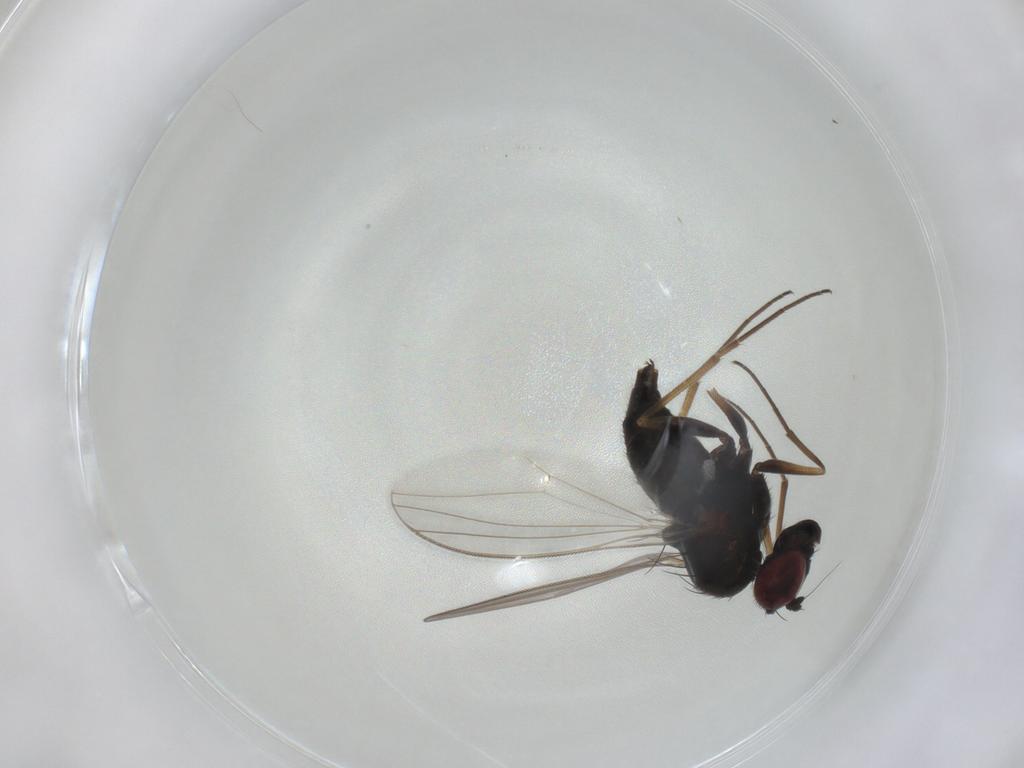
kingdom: Animalia
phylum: Arthropoda
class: Insecta
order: Diptera
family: Dolichopodidae
